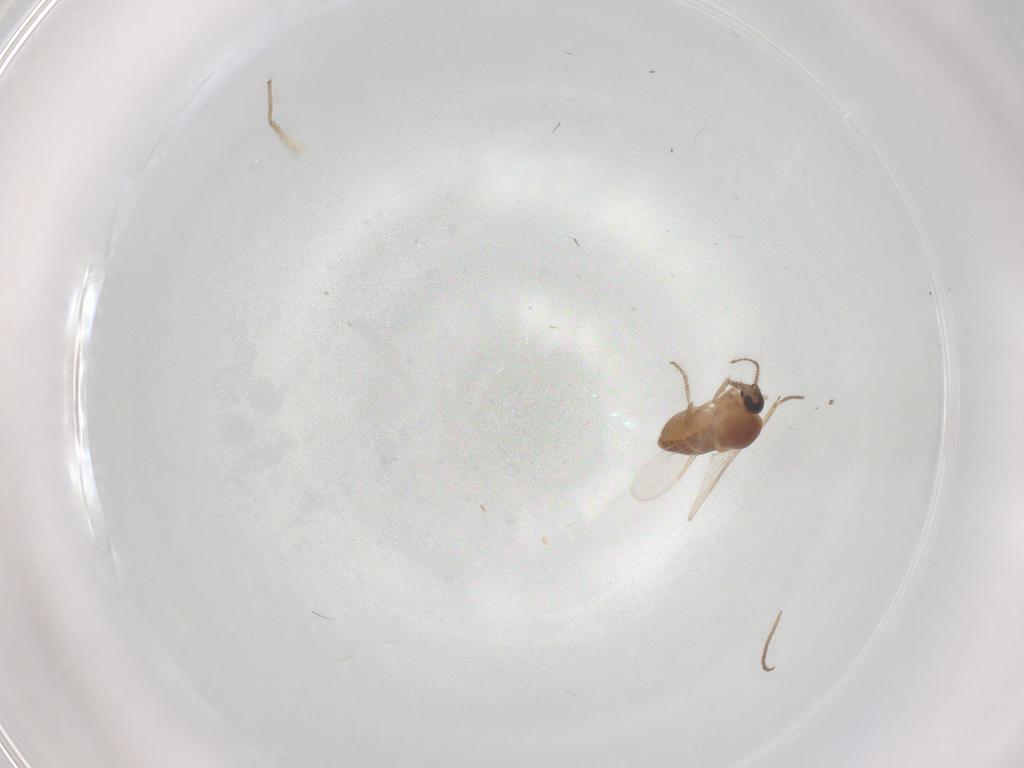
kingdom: Animalia
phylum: Arthropoda
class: Insecta
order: Diptera
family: Ceratopogonidae
